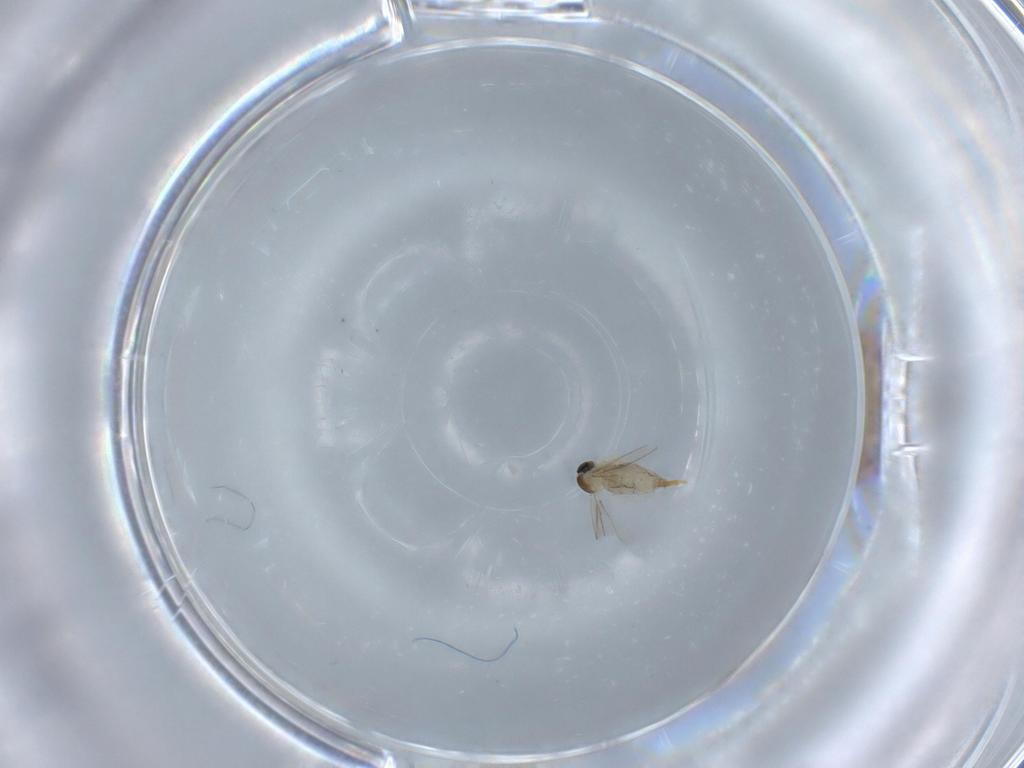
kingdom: Animalia
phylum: Arthropoda
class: Insecta
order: Diptera
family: Cecidomyiidae
